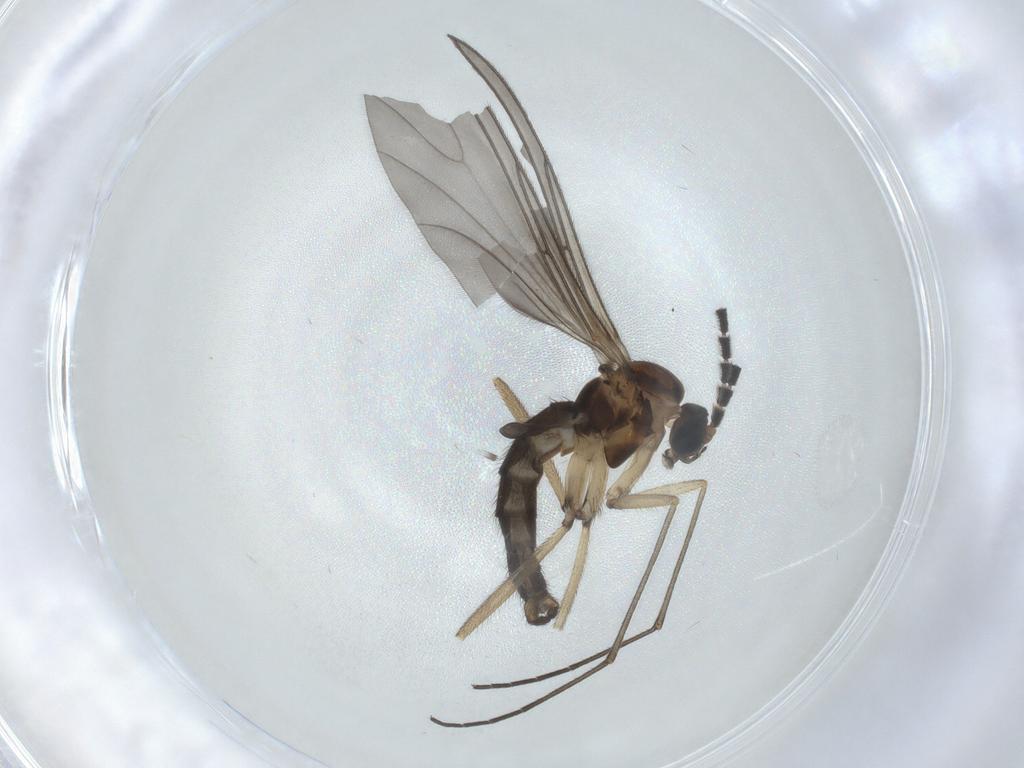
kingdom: Animalia
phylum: Arthropoda
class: Insecta
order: Diptera
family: Sciaridae
